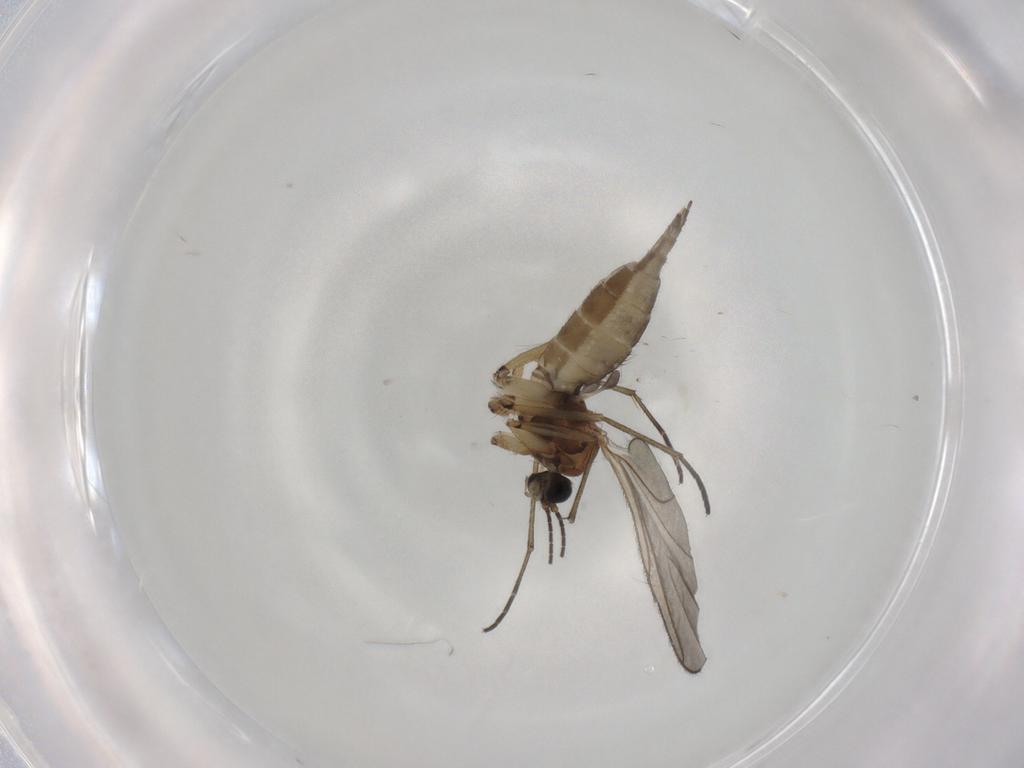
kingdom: Animalia
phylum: Arthropoda
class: Insecta
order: Diptera
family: Sciaridae
